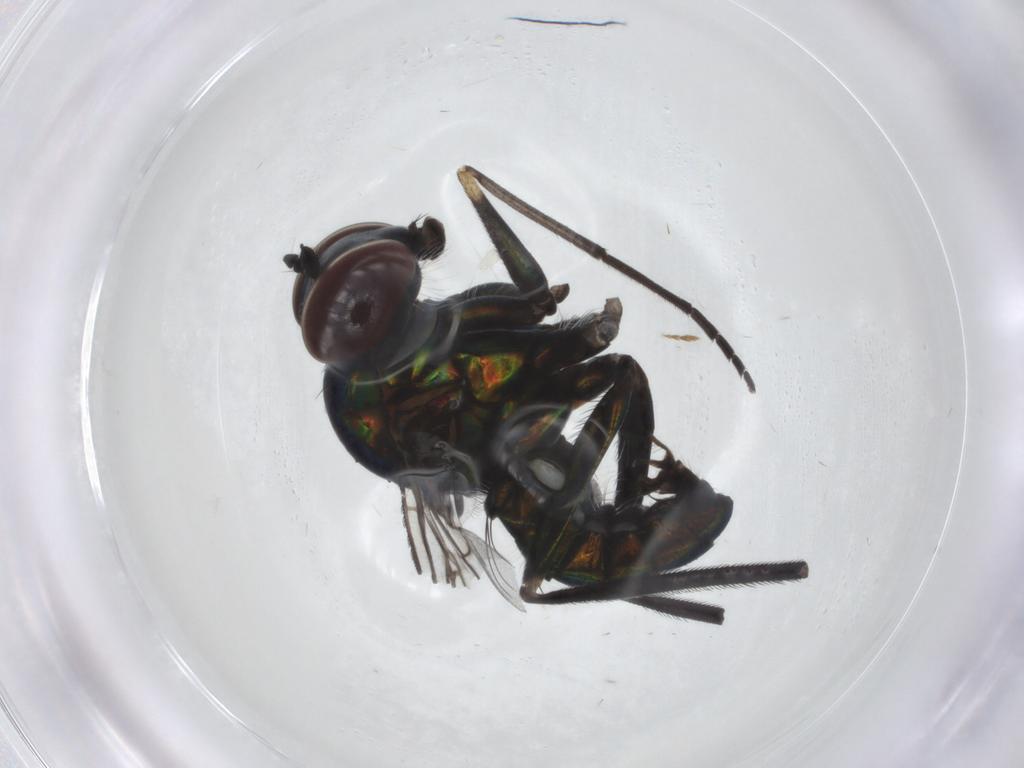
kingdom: Animalia
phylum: Arthropoda
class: Insecta
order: Diptera
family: Dolichopodidae
